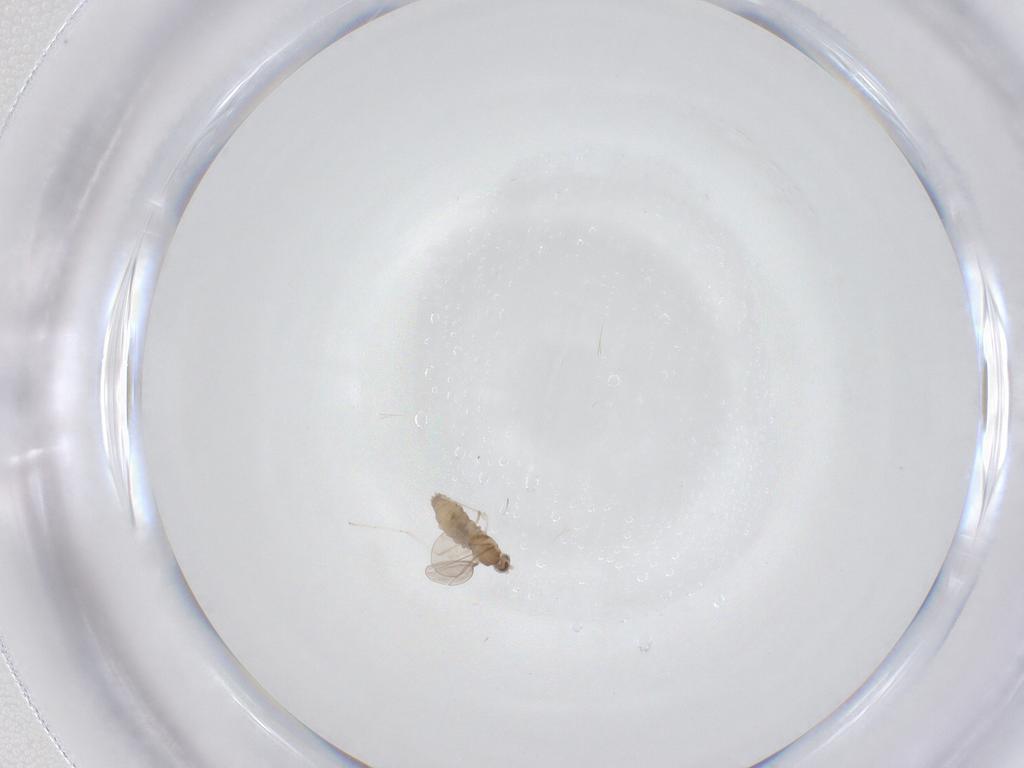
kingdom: Animalia
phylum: Arthropoda
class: Insecta
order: Diptera
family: Cecidomyiidae
